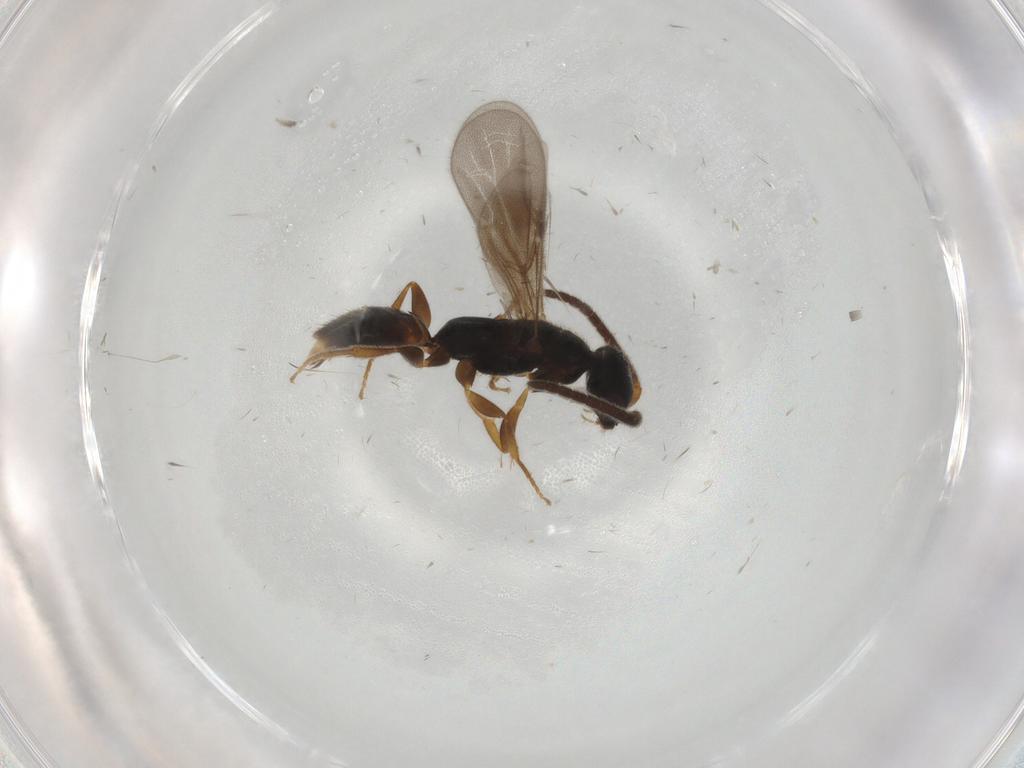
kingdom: Animalia
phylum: Arthropoda
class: Insecta
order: Hymenoptera
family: Bethylidae
